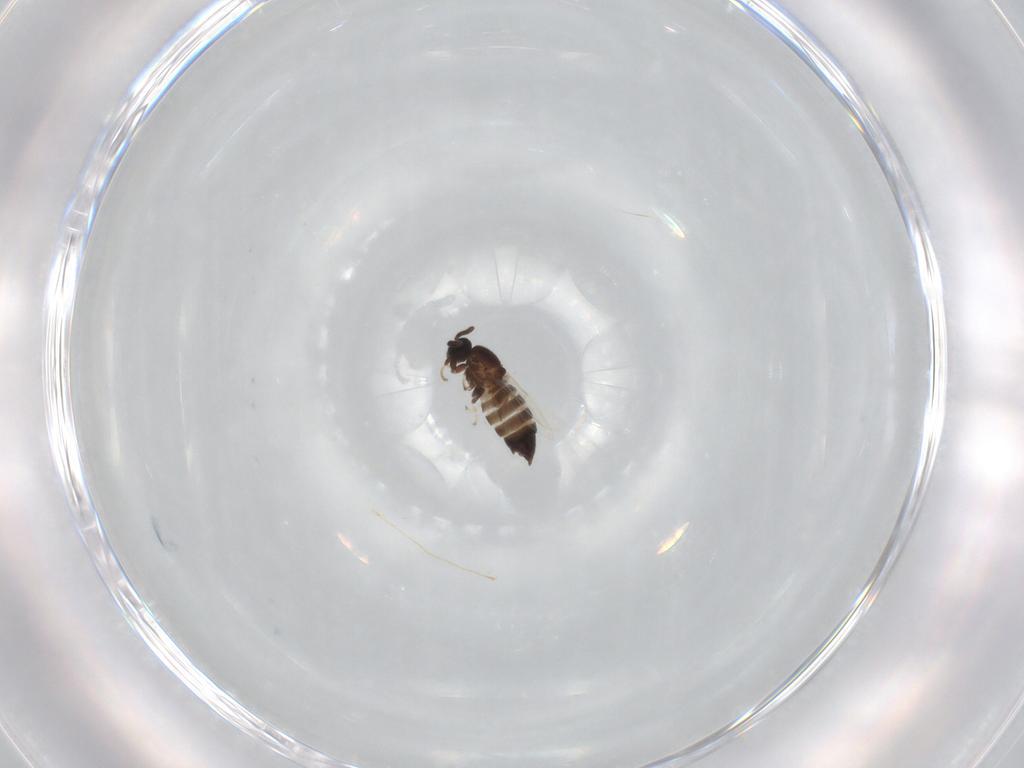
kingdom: Animalia
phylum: Arthropoda
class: Insecta
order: Diptera
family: Scatopsidae
